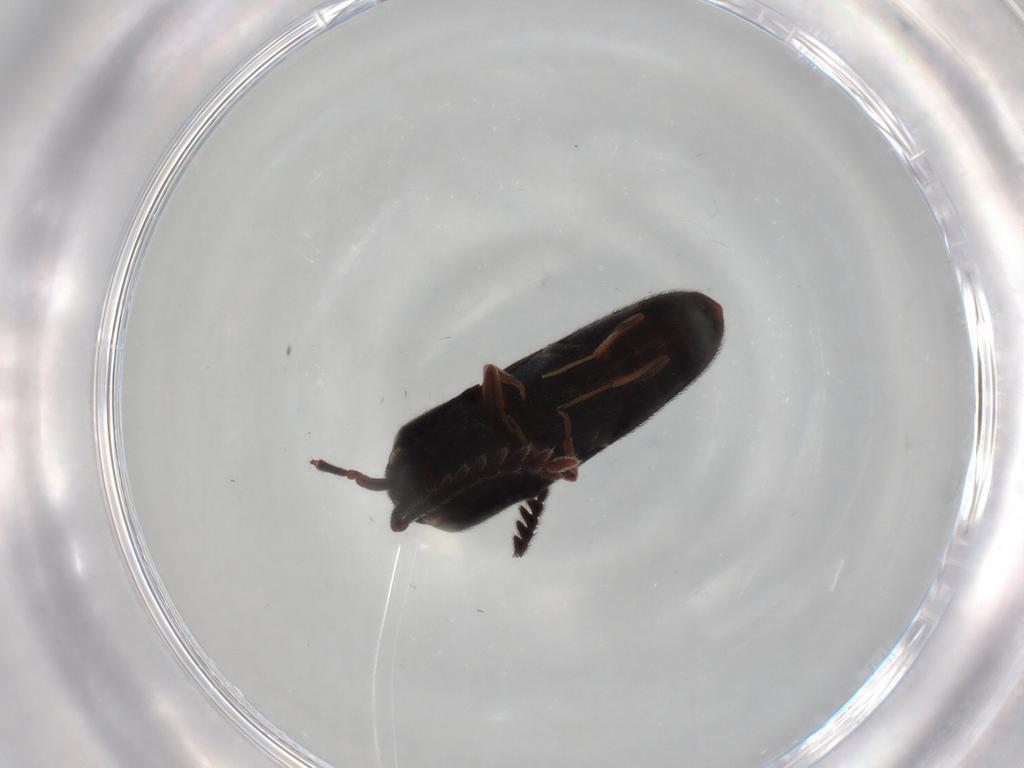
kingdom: Animalia
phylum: Arthropoda
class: Insecta
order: Coleoptera
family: Eucnemidae
